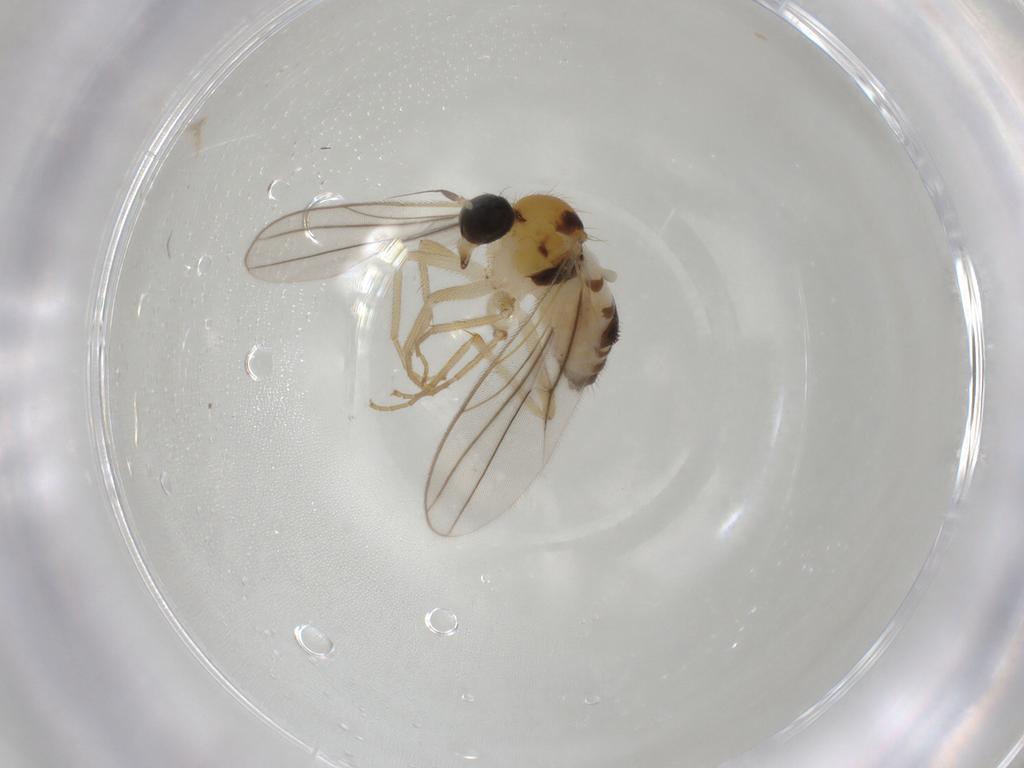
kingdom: Animalia
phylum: Arthropoda
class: Insecta
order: Diptera
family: Hybotidae
